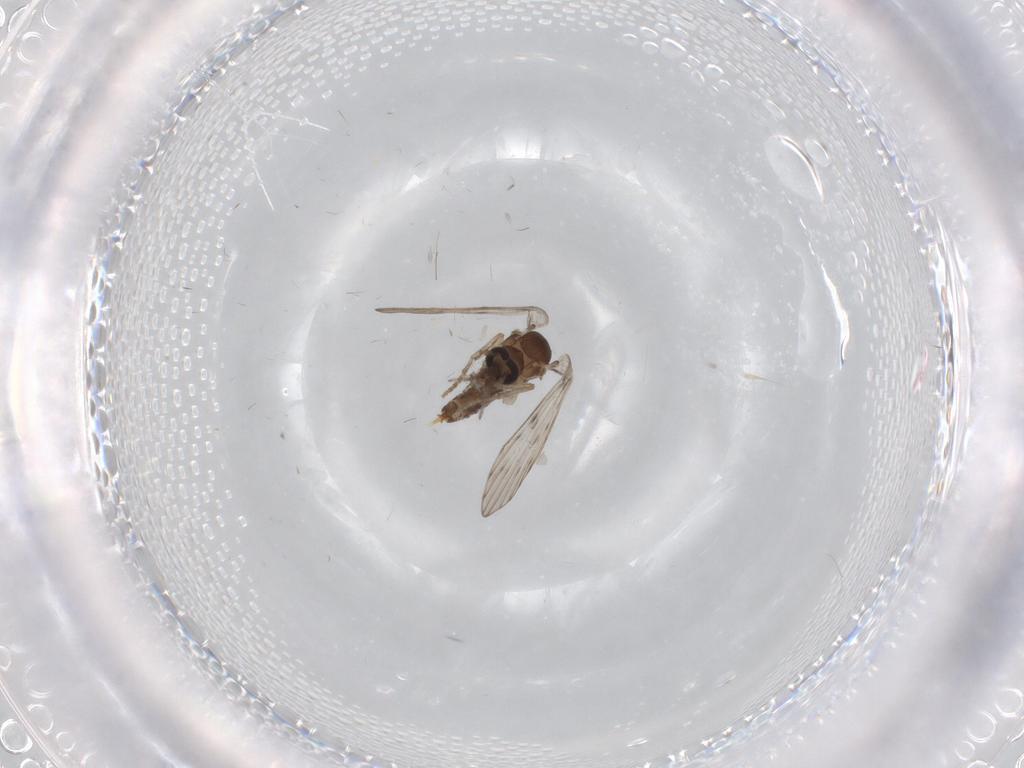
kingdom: Animalia
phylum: Arthropoda
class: Insecta
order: Diptera
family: Psychodidae
